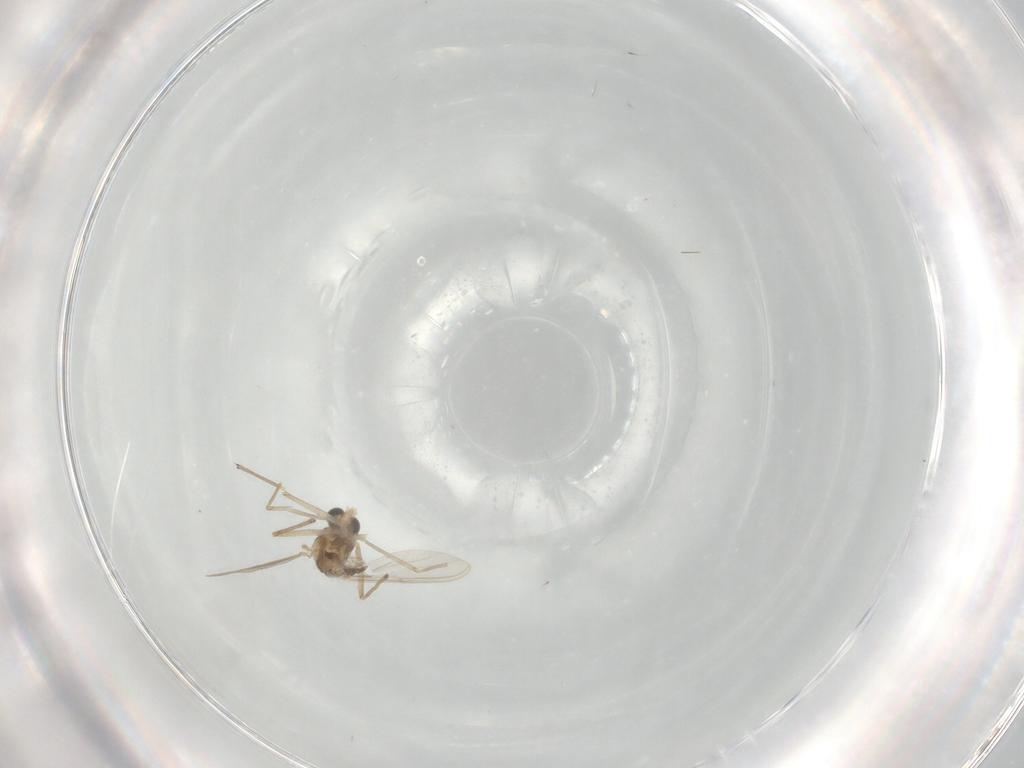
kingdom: Animalia
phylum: Arthropoda
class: Insecta
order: Diptera
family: Chironomidae
